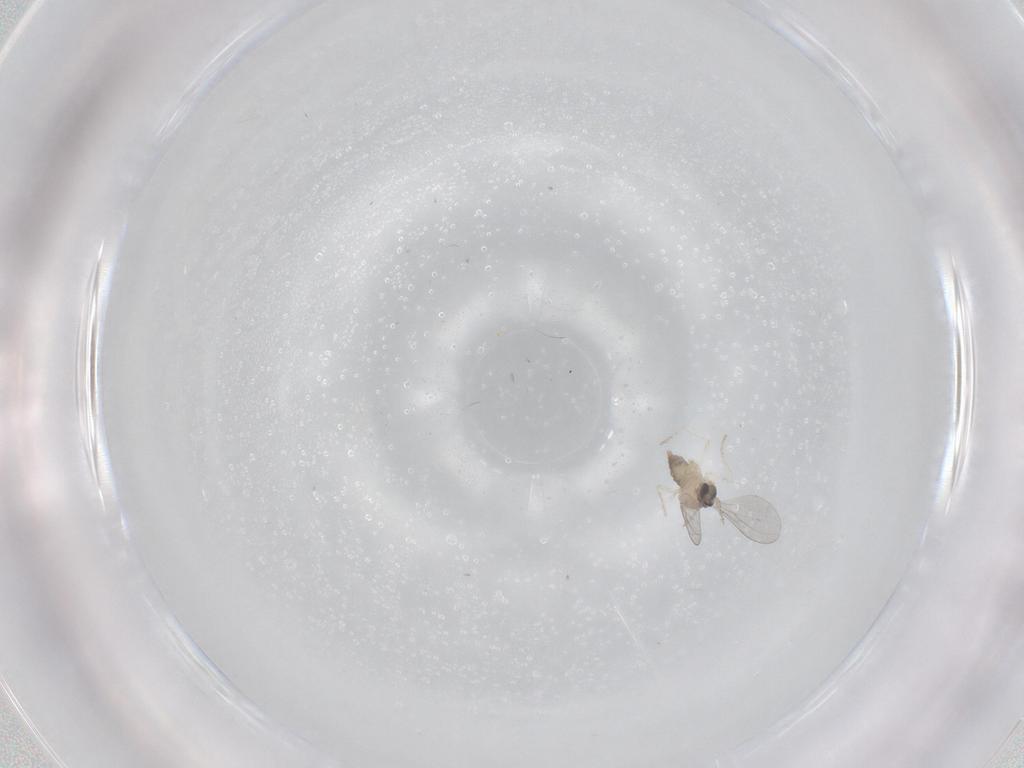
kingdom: Animalia
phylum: Arthropoda
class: Insecta
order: Diptera
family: Cecidomyiidae
